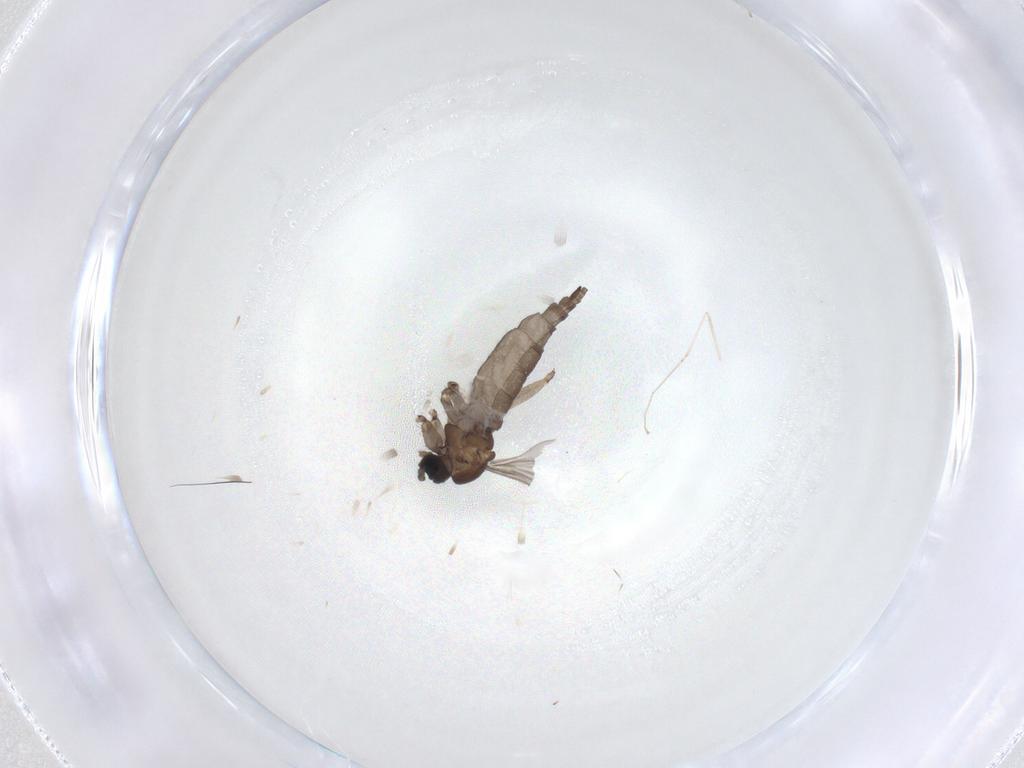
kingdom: Animalia
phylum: Arthropoda
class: Insecta
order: Diptera
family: Sciaridae
